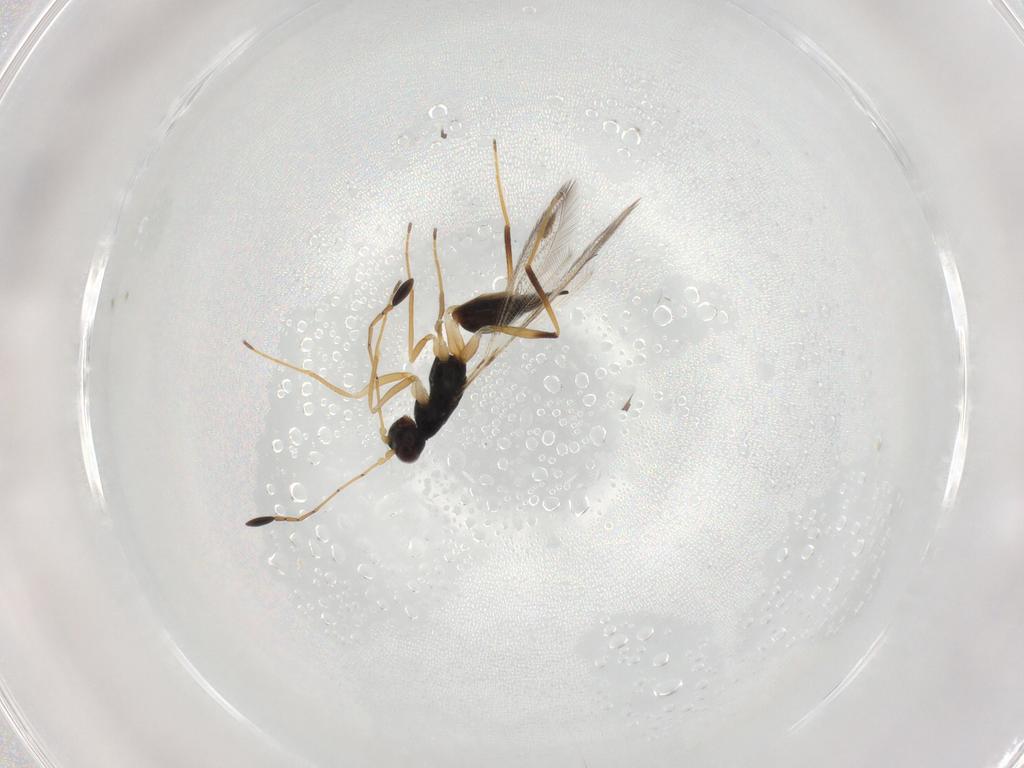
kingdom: Animalia
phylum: Arthropoda
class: Insecta
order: Hymenoptera
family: Mymaridae
